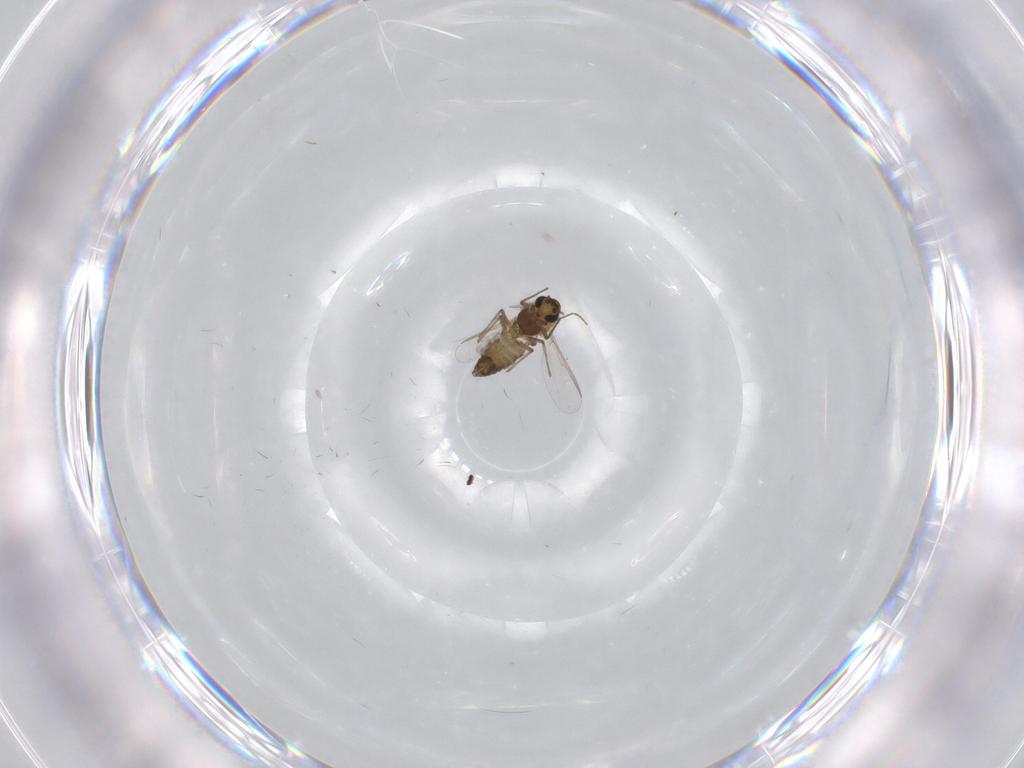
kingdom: Animalia
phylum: Arthropoda
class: Insecta
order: Diptera
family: Chironomidae
